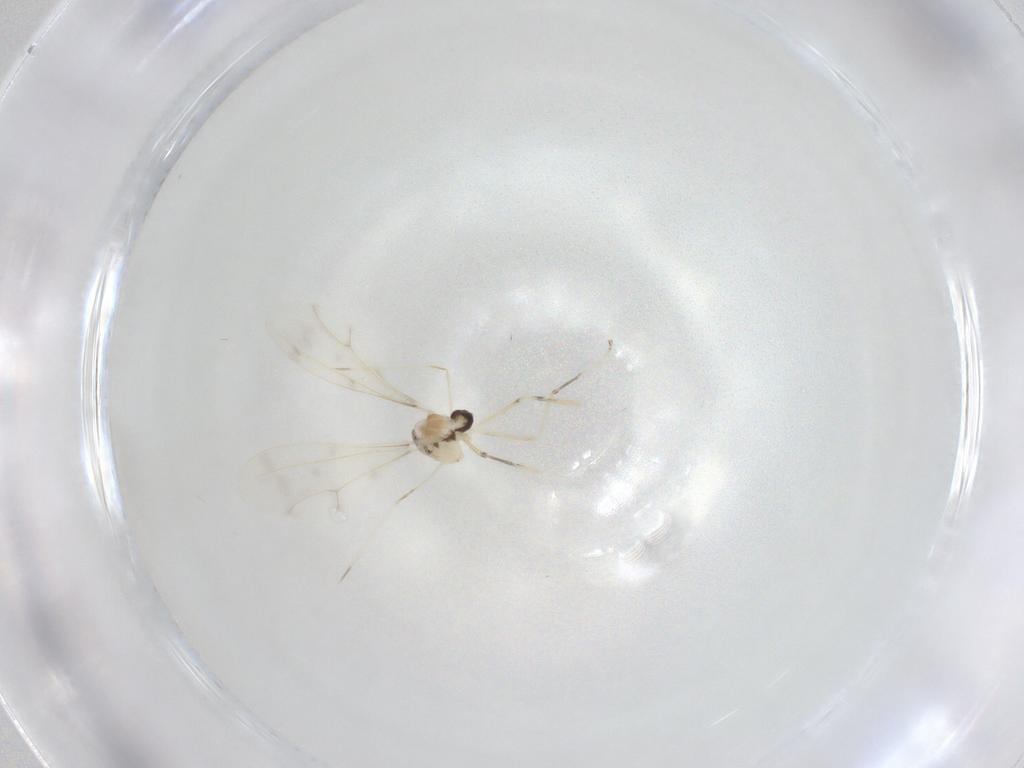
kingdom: Animalia
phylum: Arthropoda
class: Insecta
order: Diptera
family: Cecidomyiidae
